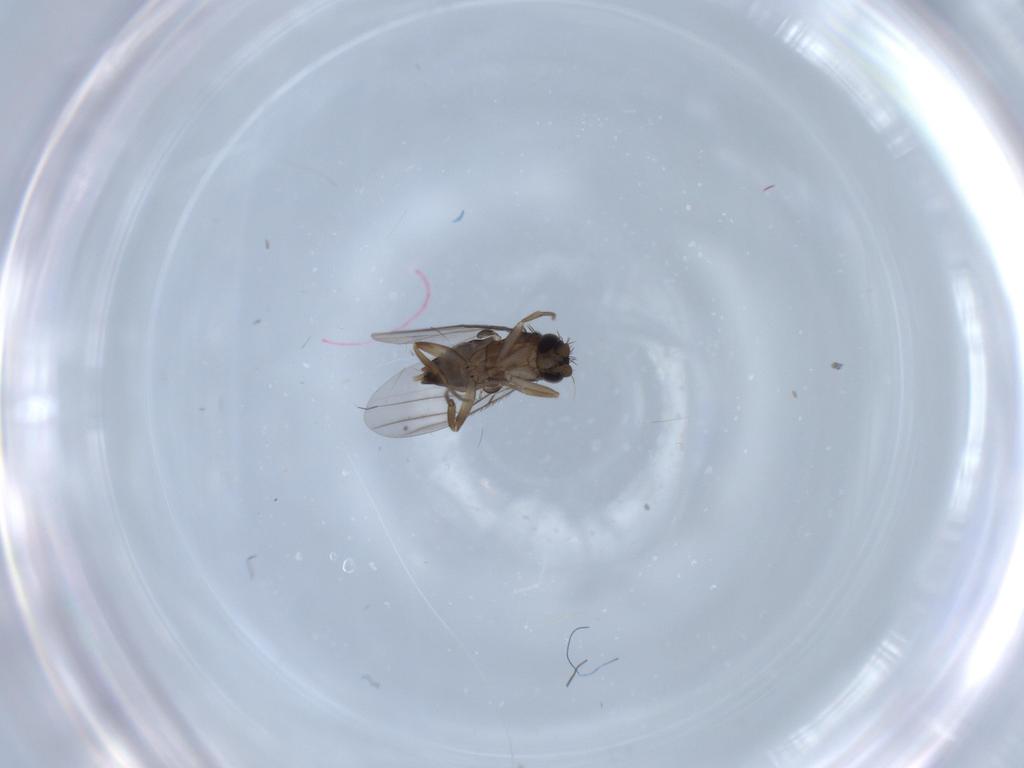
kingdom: Animalia
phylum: Arthropoda
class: Insecta
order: Diptera
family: Phoridae
